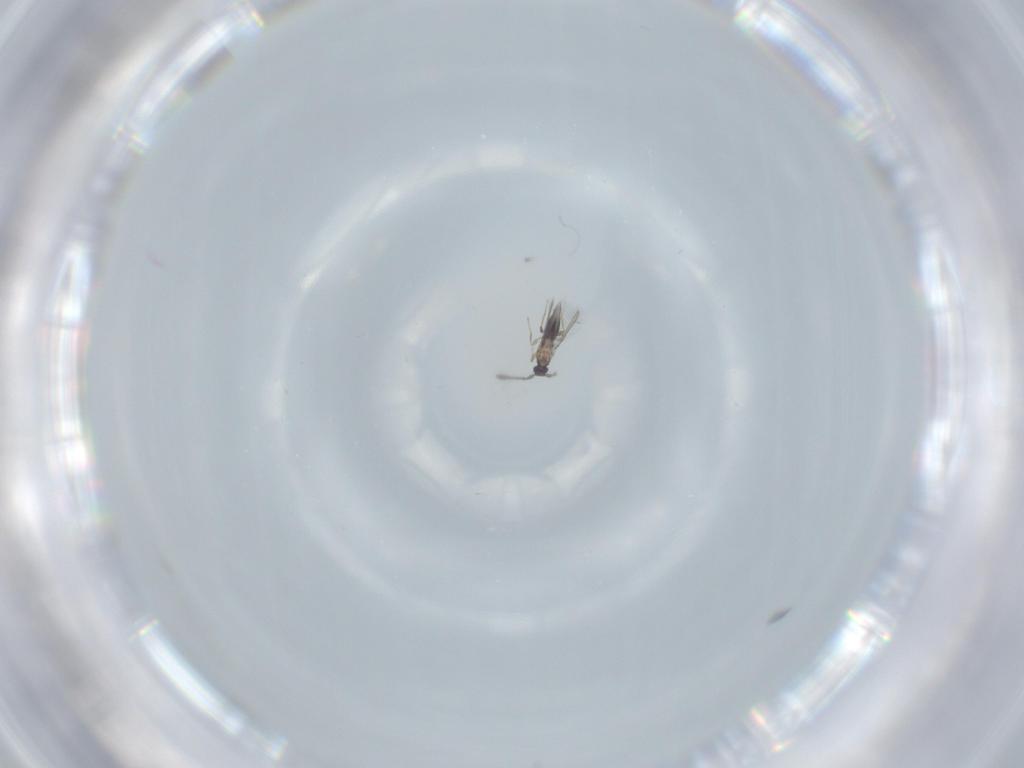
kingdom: Animalia
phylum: Arthropoda
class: Insecta
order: Hymenoptera
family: Mymaridae
